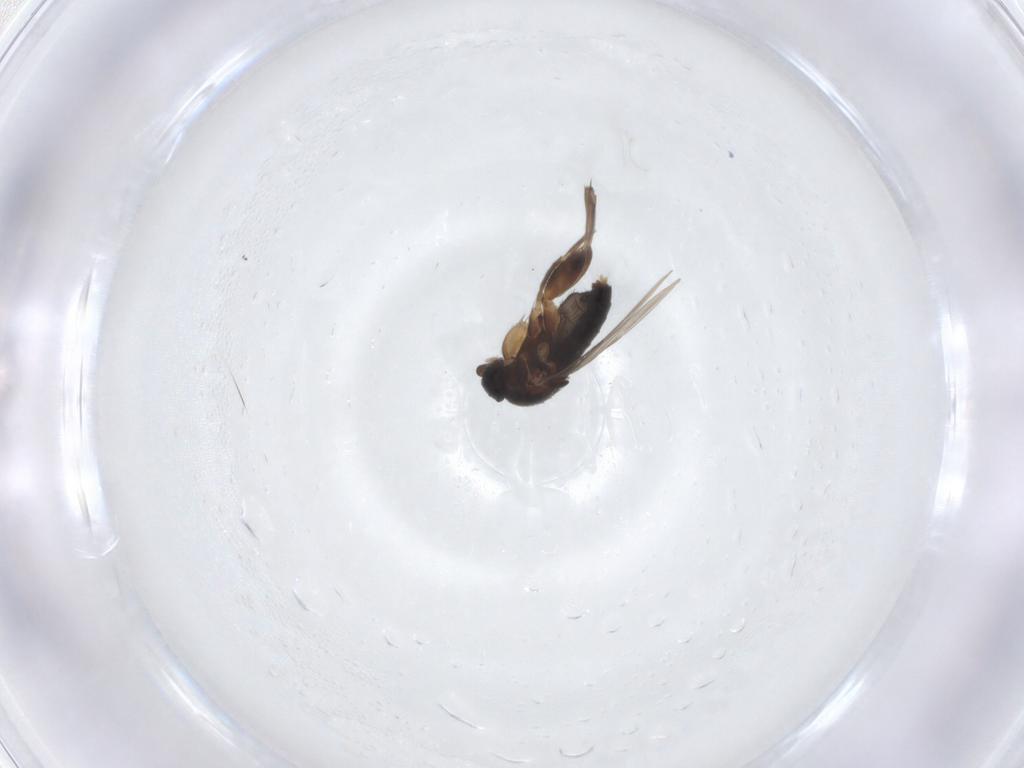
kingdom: Animalia
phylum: Arthropoda
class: Insecta
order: Diptera
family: Phoridae
